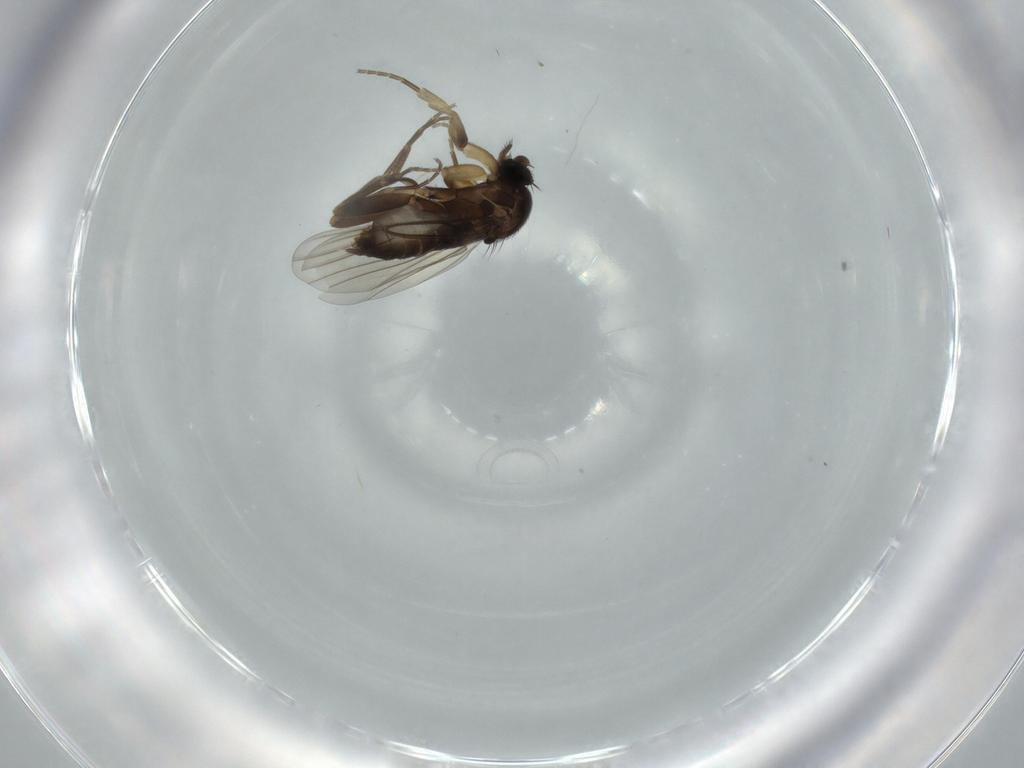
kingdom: Animalia
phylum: Arthropoda
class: Insecta
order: Diptera
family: Phoridae
